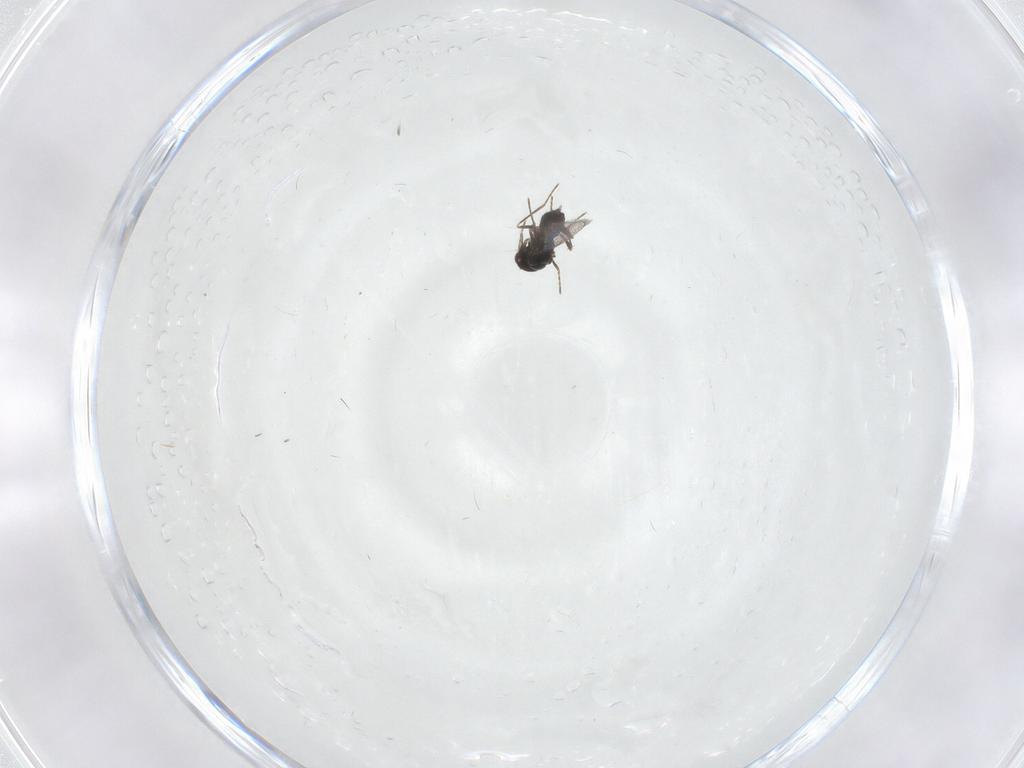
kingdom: Animalia
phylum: Arthropoda
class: Insecta
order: Hymenoptera
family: Eulophidae
